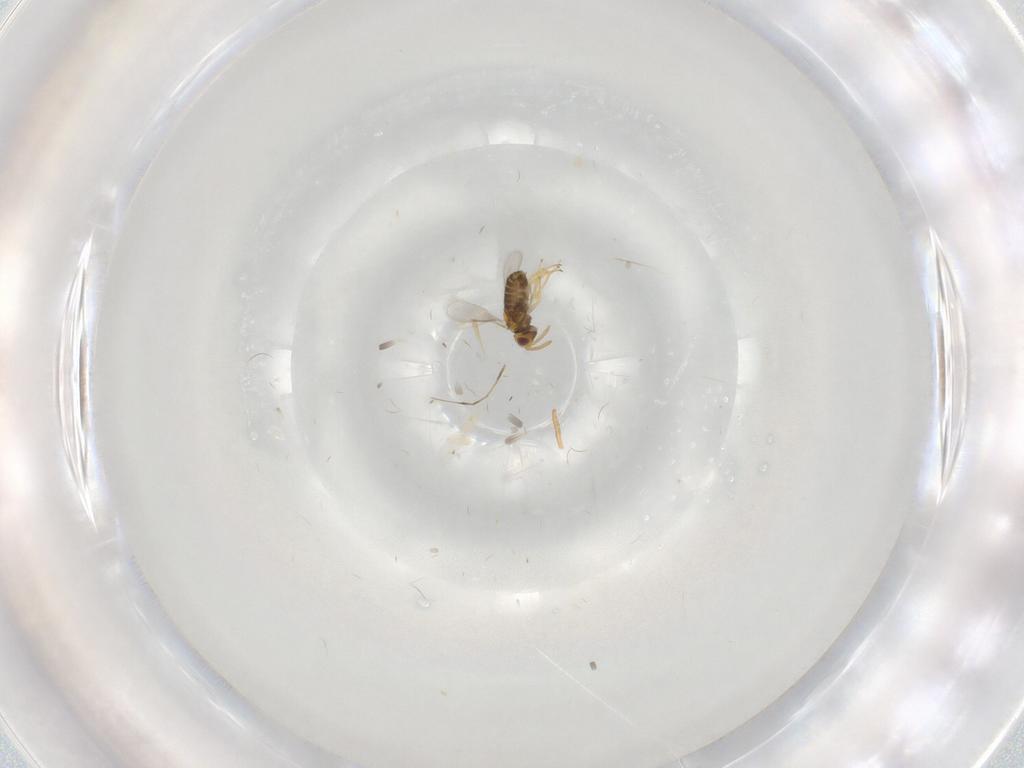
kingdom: Animalia
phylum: Arthropoda
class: Insecta
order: Hymenoptera
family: Aphelinidae
